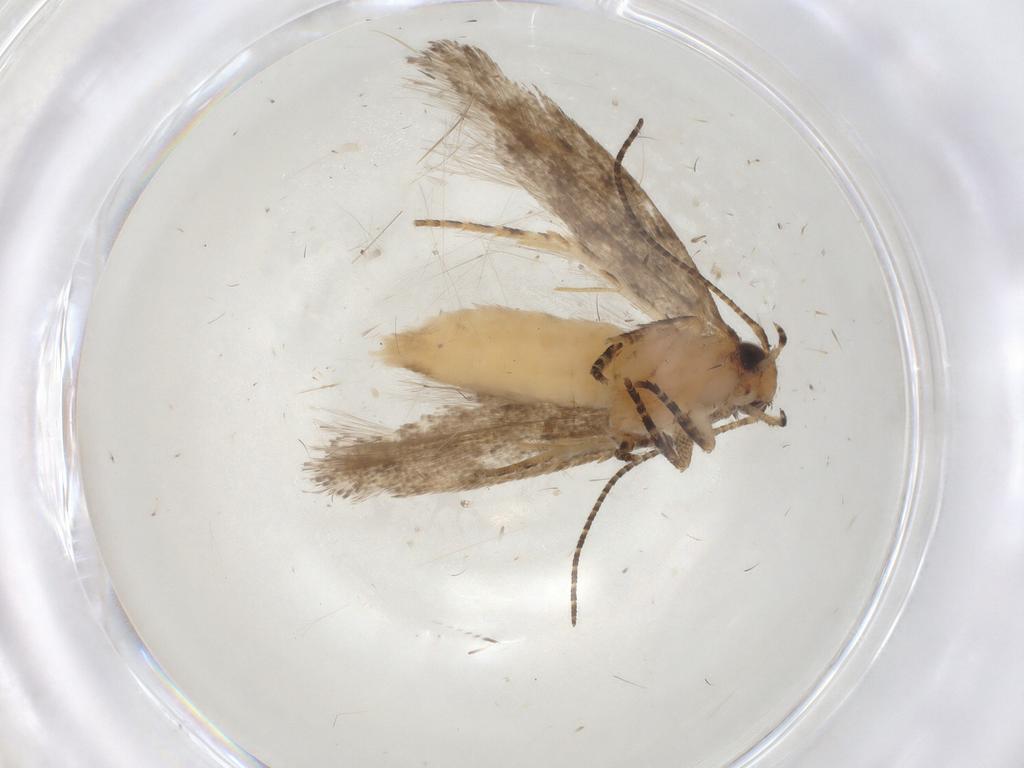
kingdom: Animalia
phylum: Arthropoda
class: Insecta
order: Lepidoptera
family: Gelechiidae
